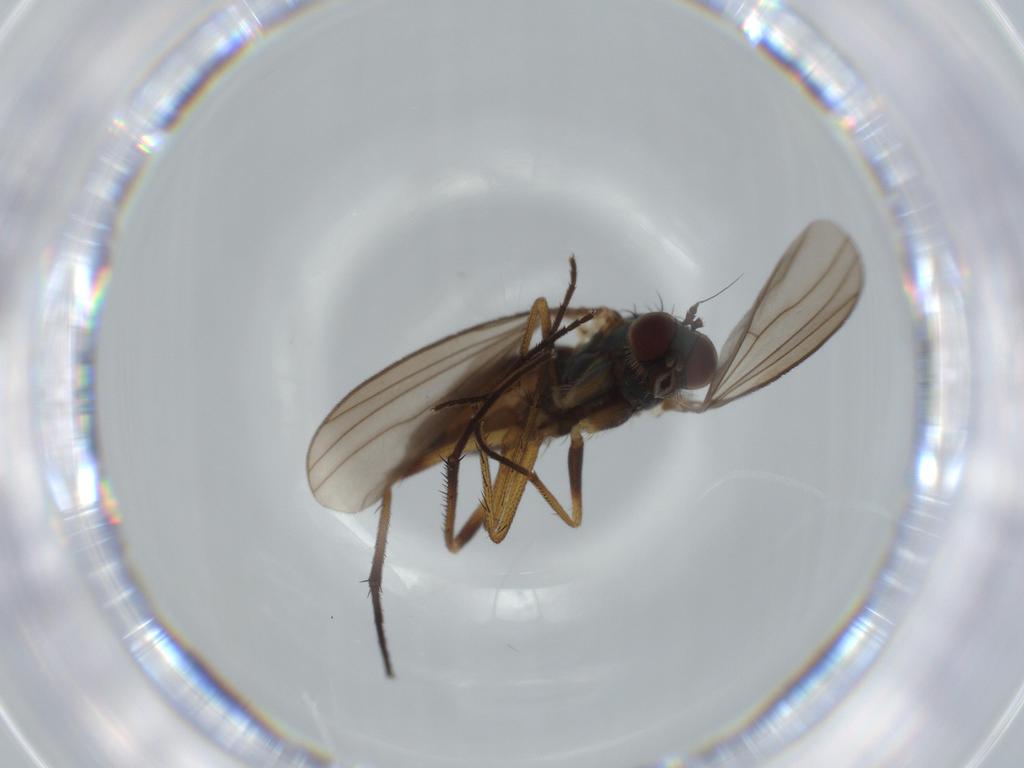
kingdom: Animalia
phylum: Arthropoda
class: Insecta
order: Diptera
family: Dolichopodidae
